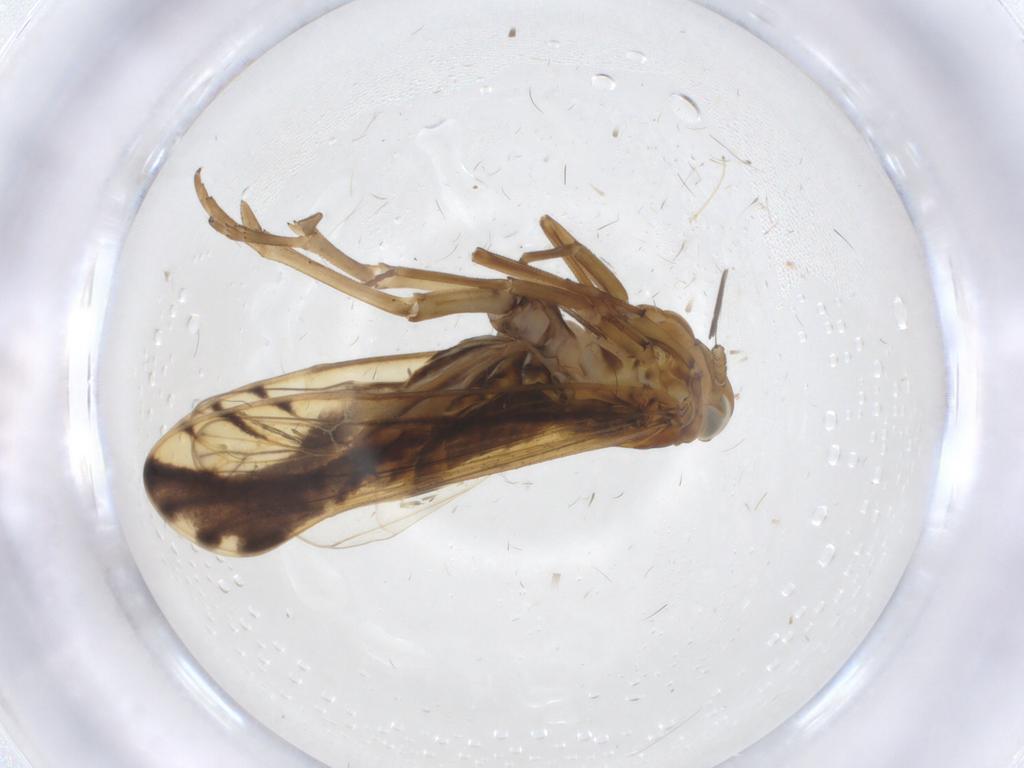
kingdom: Animalia
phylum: Arthropoda
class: Insecta
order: Hemiptera
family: Delphacidae
